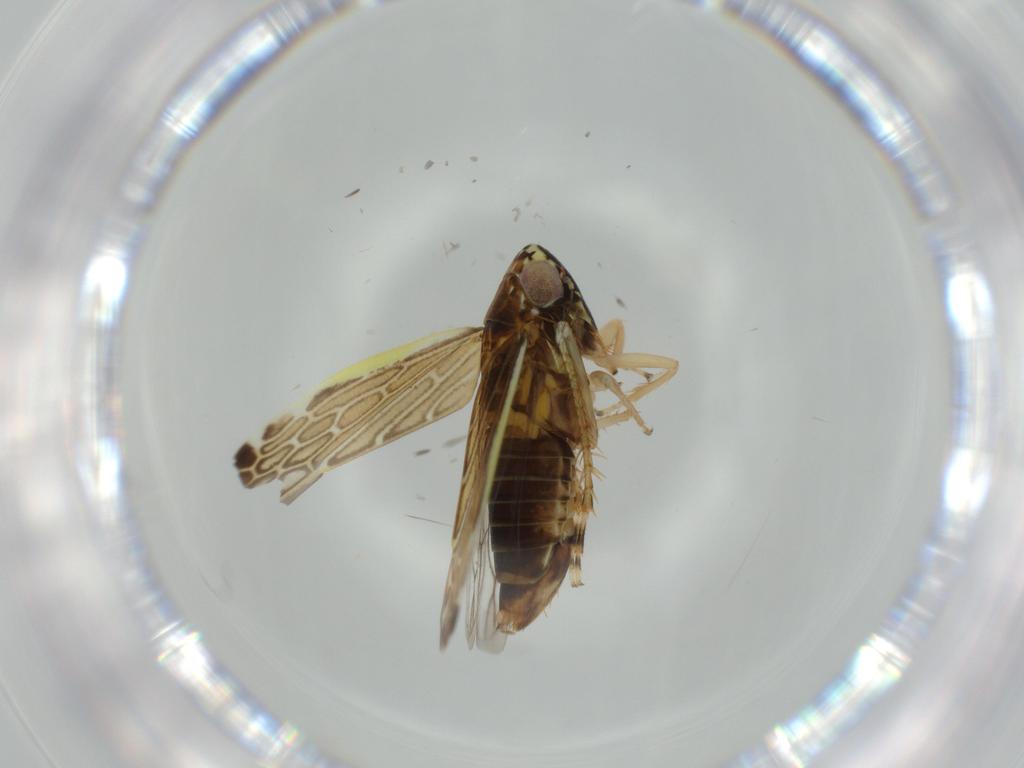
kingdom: Animalia
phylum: Arthropoda
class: Insecta
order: Hemiptera
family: Cicadellidae
